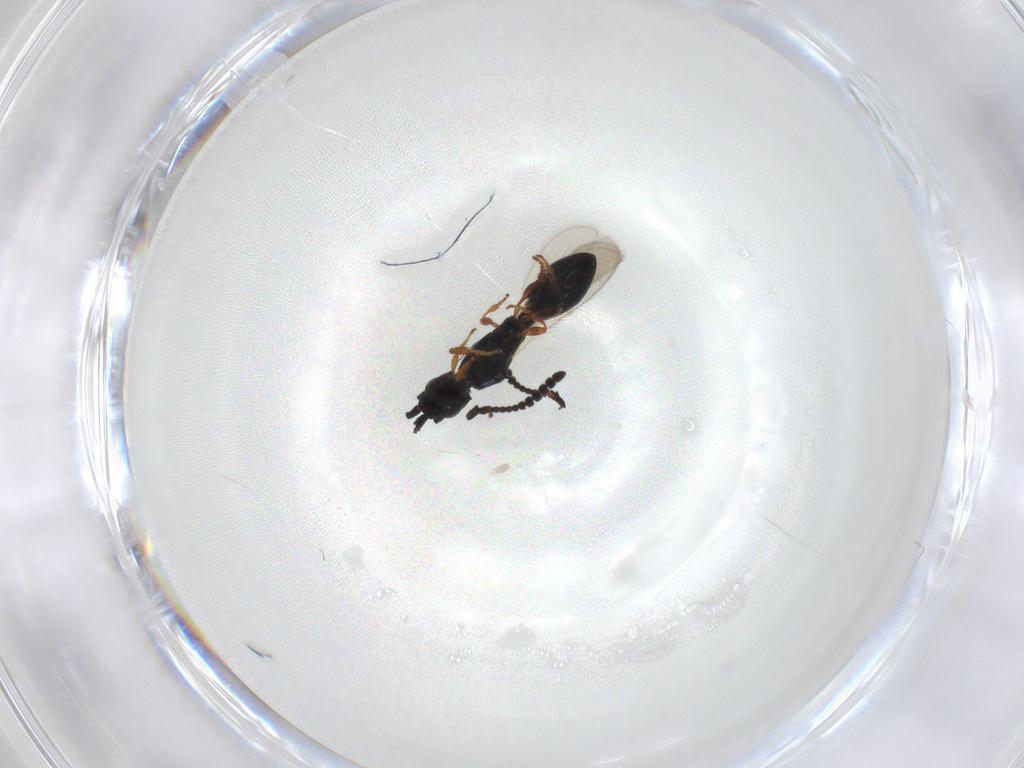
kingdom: Animalia
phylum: Arthropoda
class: Insecta
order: Hymenoptera
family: Diapriidae
